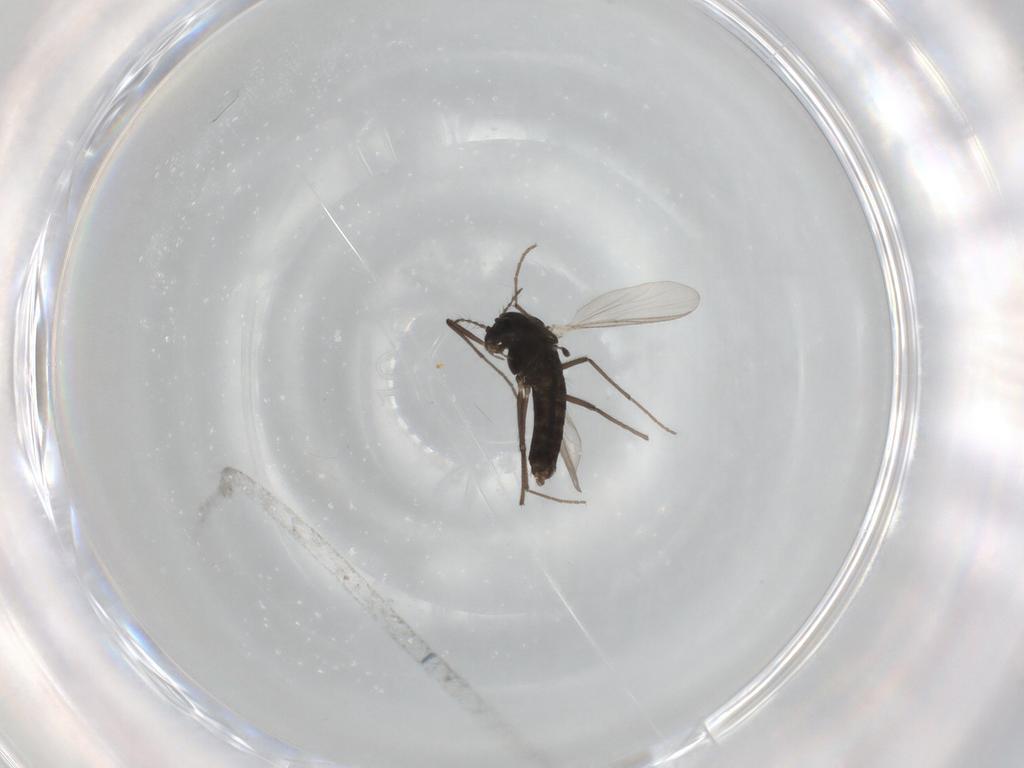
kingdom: Animalia
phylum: Arthropoda
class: Insecta
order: Diptera
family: Chironomidae
